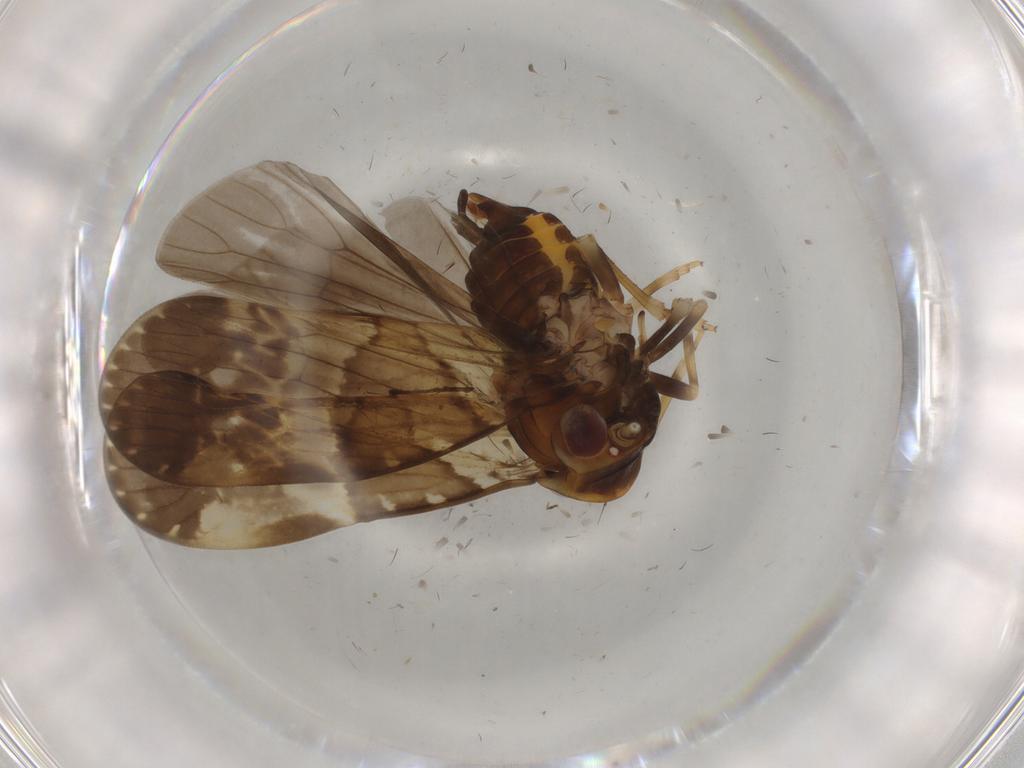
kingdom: Animalia
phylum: Arthropoda
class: Insecta
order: Hemiptera
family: Cixiidae
